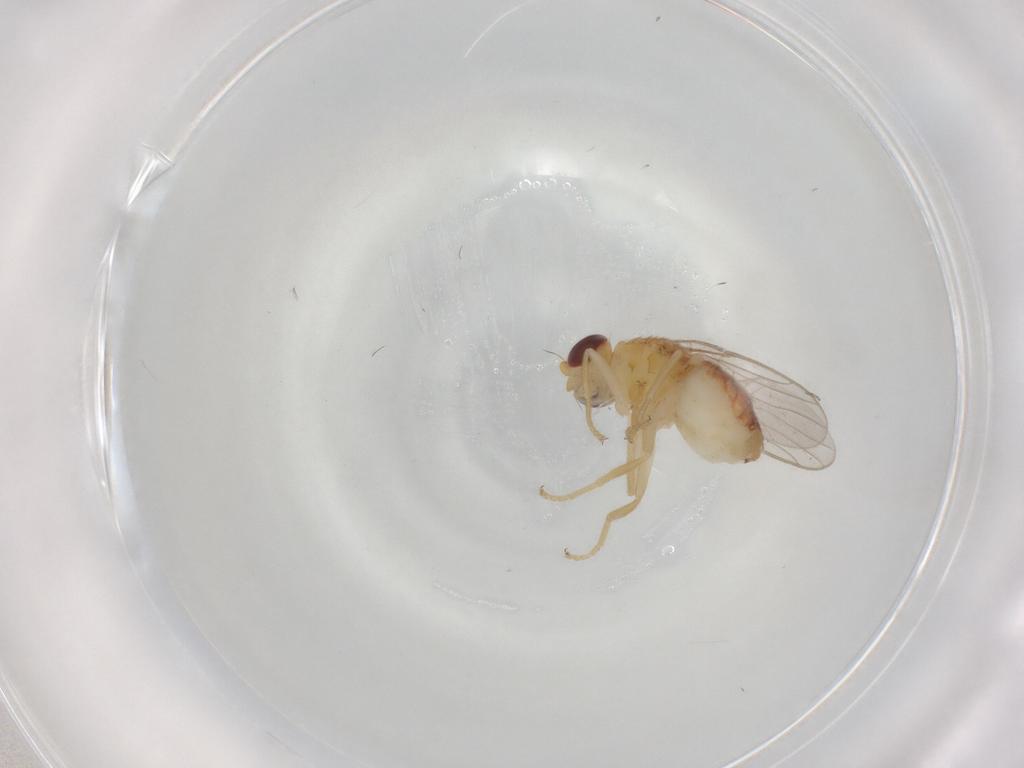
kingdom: Animalia
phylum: Arthropoda
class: Insecta
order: Diptera
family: Chloropidae
